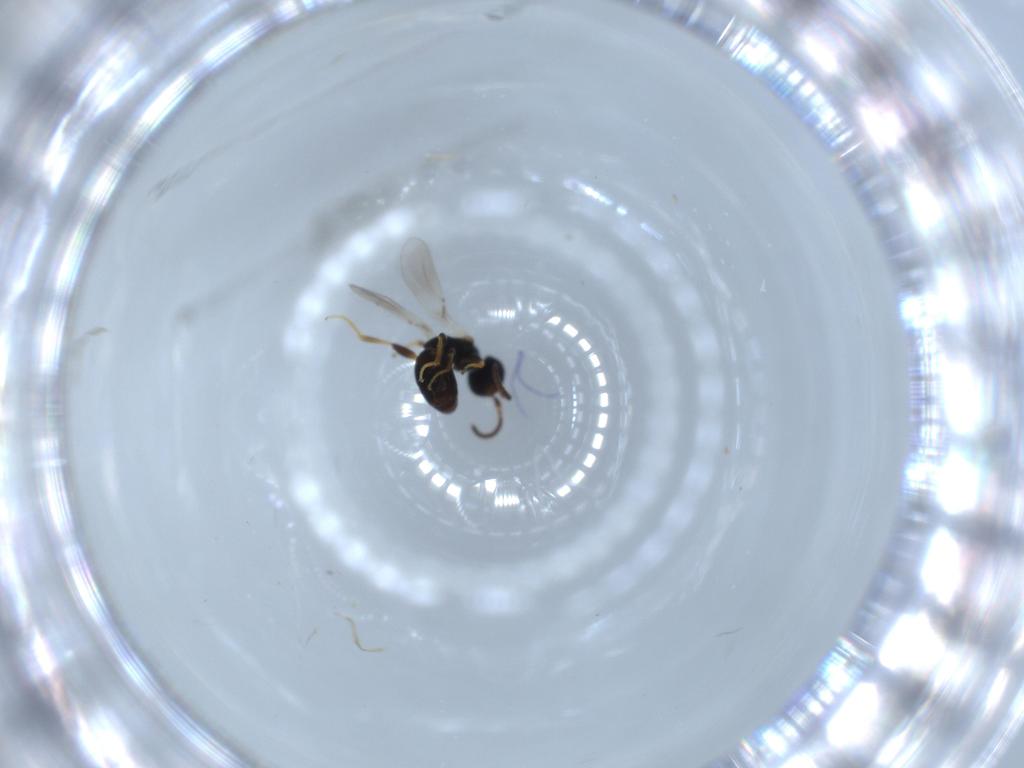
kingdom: Animalia
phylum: Arthropoda
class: Insecta
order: Hymenoptera
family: Bethylidae
